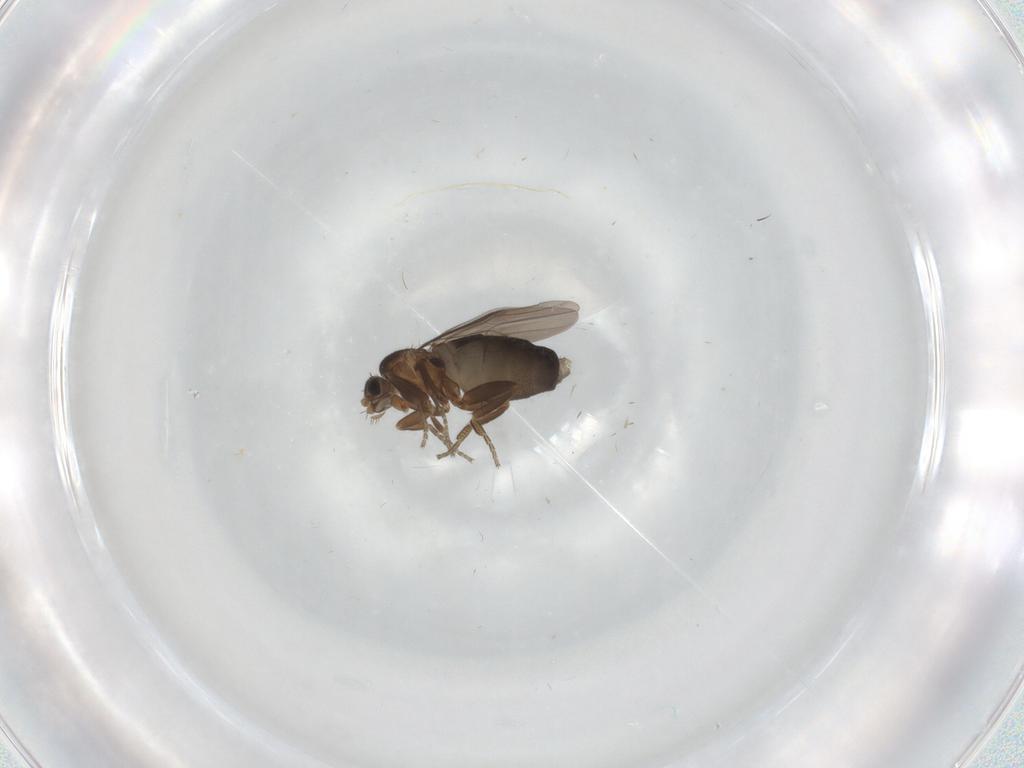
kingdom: Animalia
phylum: Arthropoda
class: Insecta
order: Diptera
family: Cecidomyiidae
